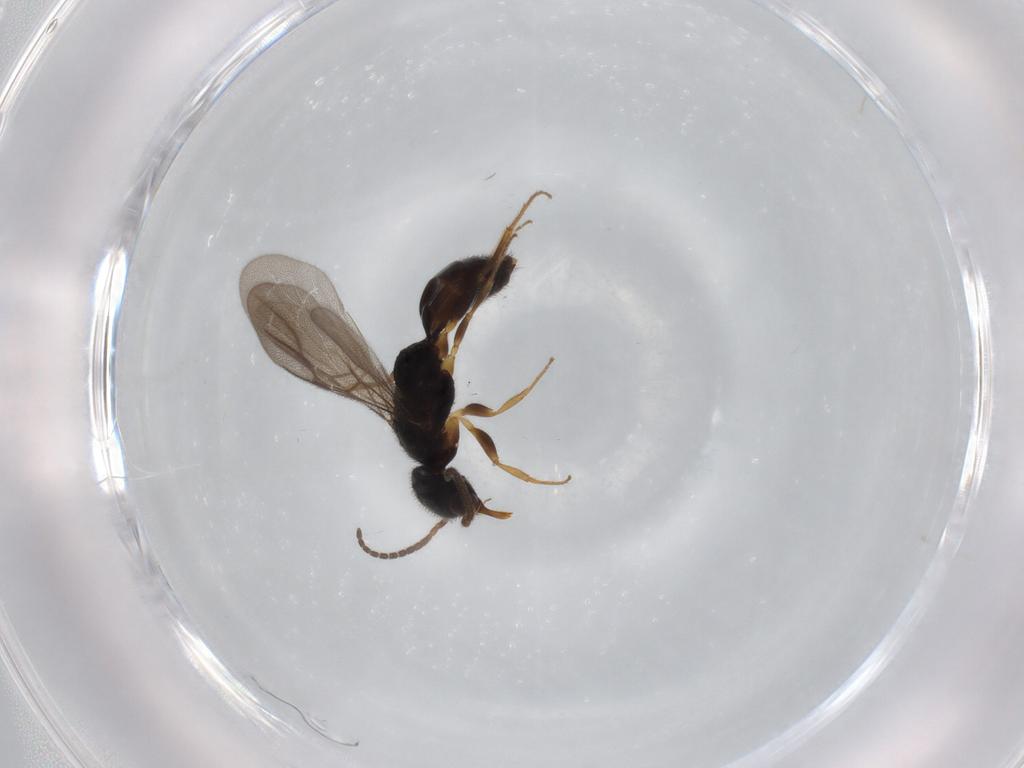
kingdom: Animalia
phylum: Arthropoda
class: Insecta
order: Hymenoptera
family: Bethylidae
